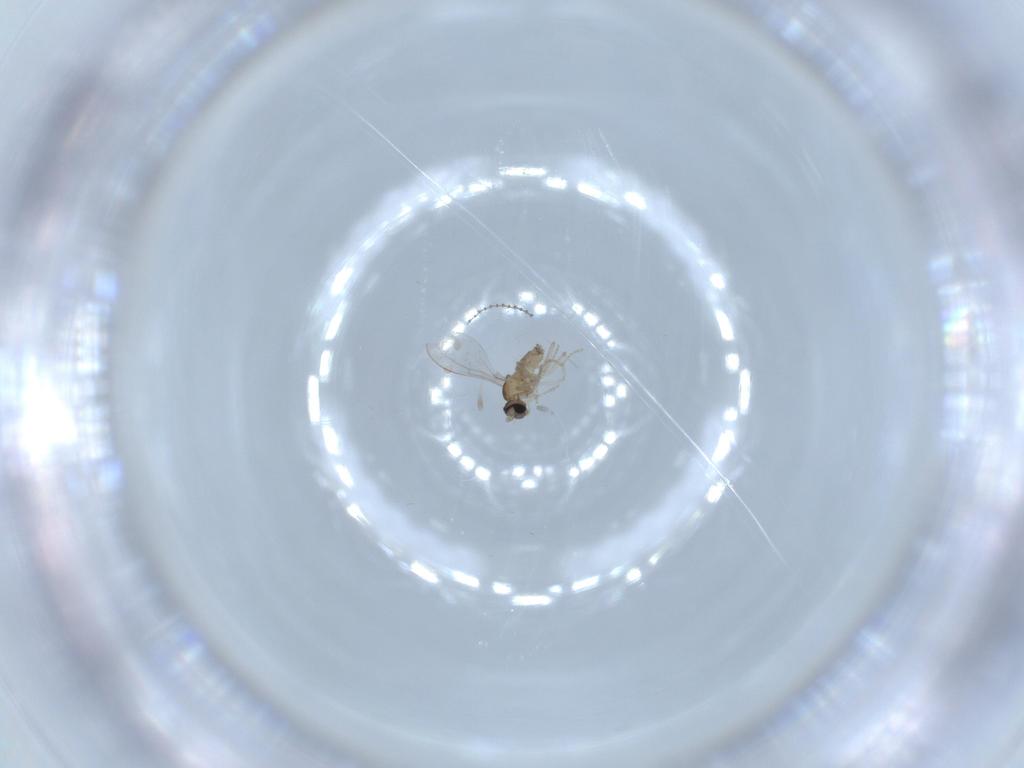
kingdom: Animalia
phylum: Arthropoda
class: Insecta
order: Diptera
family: Cecidomyiidae
